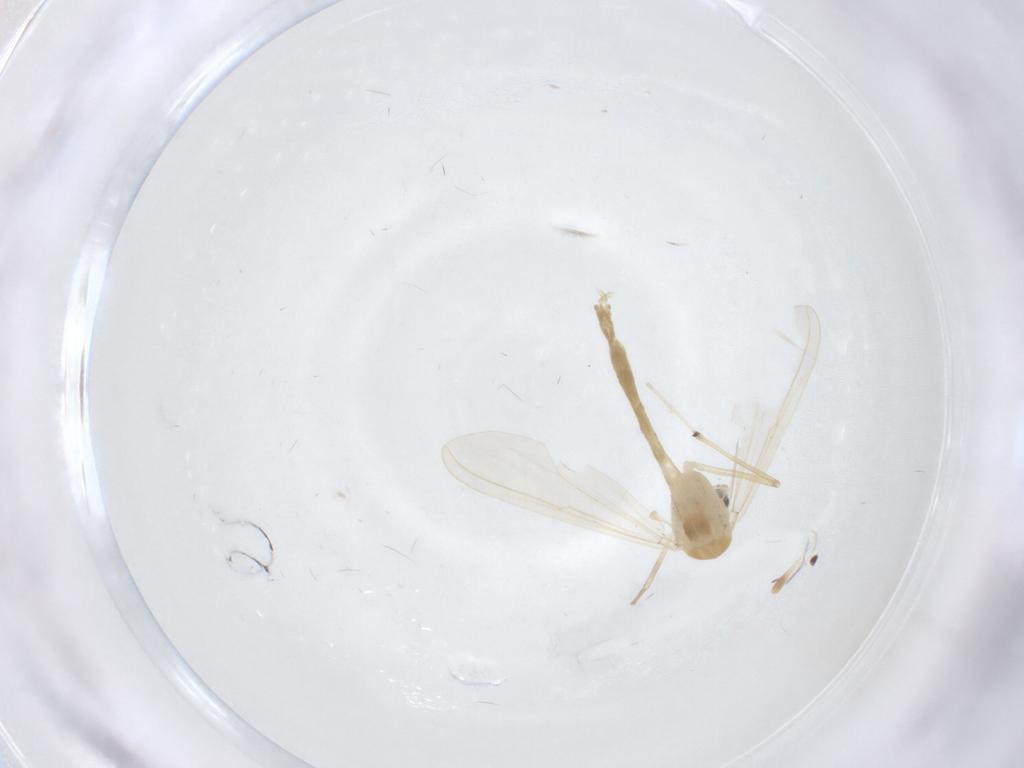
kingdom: Animalia
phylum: Arthropoda
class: Insecta
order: Diptera
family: Chironomidae
